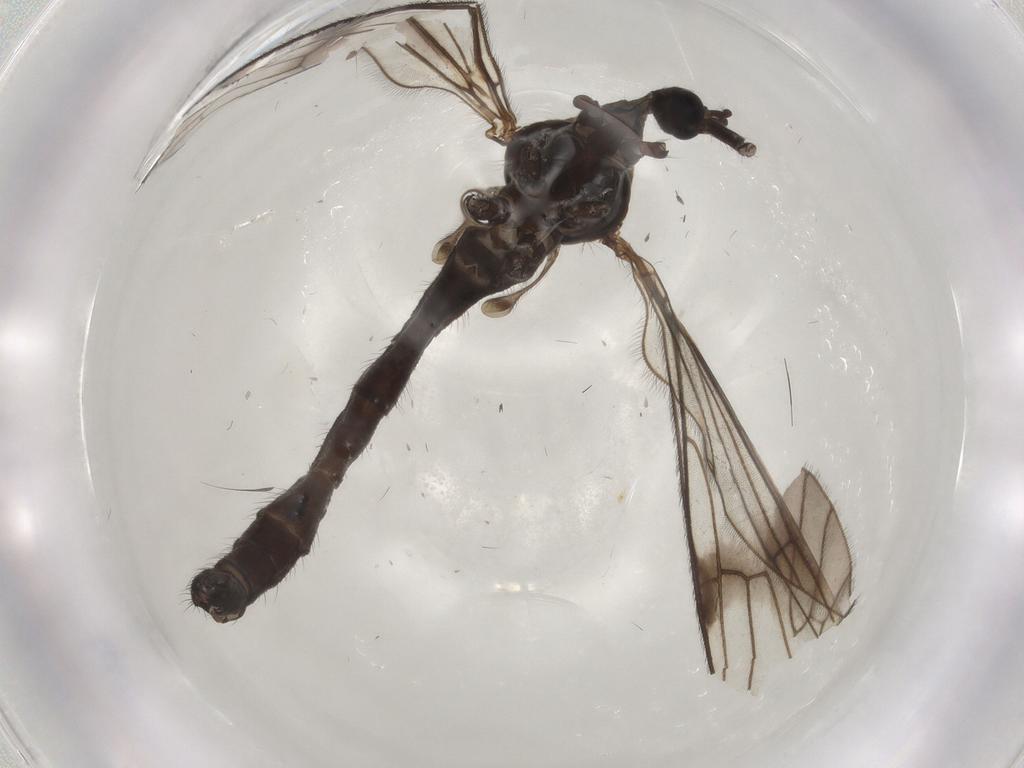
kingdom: Animalia
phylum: Arthropoda
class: Insecta
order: Diptera
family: Limoniidae
